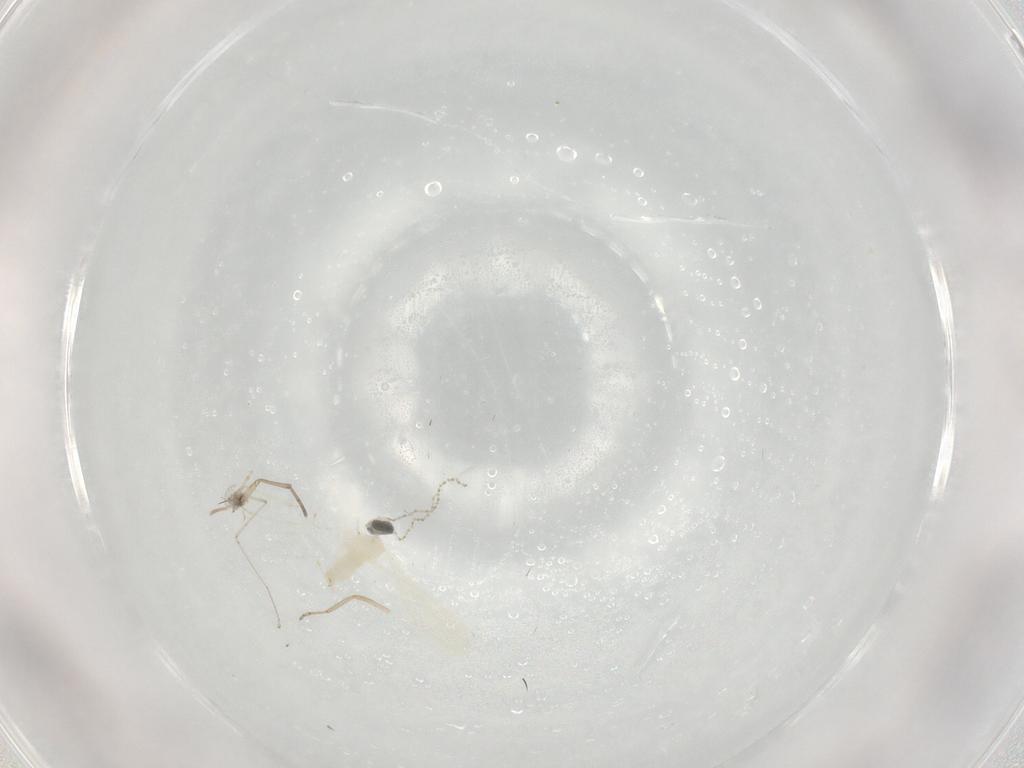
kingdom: Animalia
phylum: Arthropoda
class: Insecta
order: Diptera
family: Ceratopogonidae
